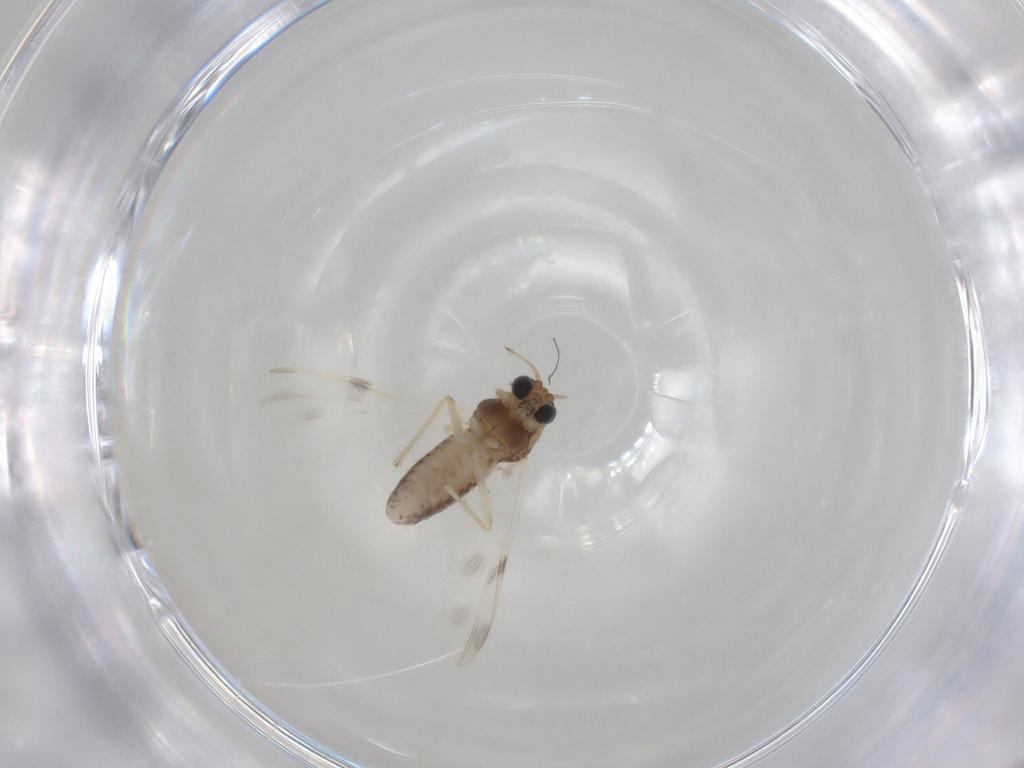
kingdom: Animalia
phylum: Arthropoda
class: Insecta
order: Diptera
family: Chironomidae
